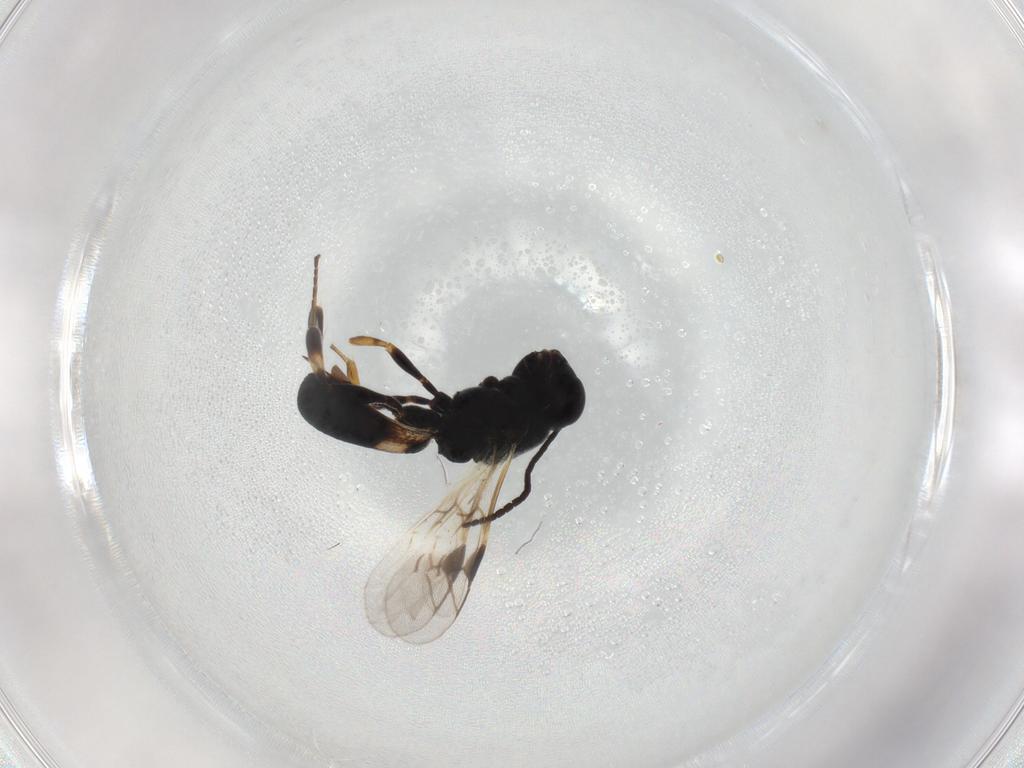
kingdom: Animalia
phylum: Arthropoda
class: Insecta
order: Hymenoptera
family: Braconidae
